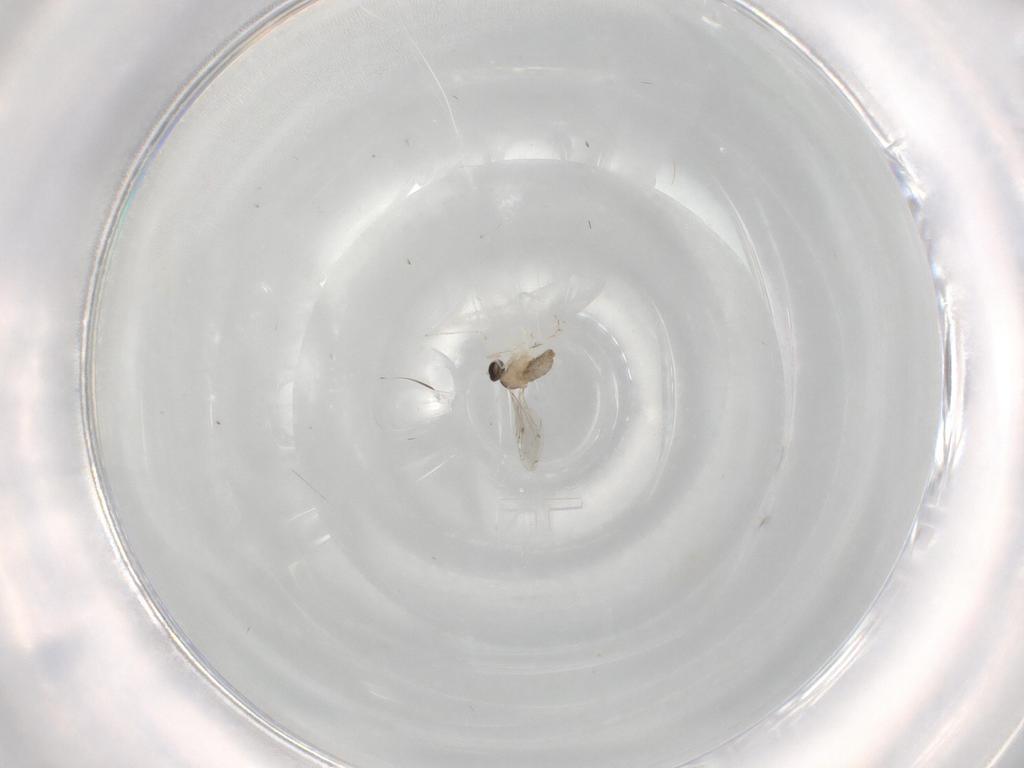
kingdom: Animalia
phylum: Arthropoda
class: Insecta
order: Diptera
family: Cecidomyiidae
